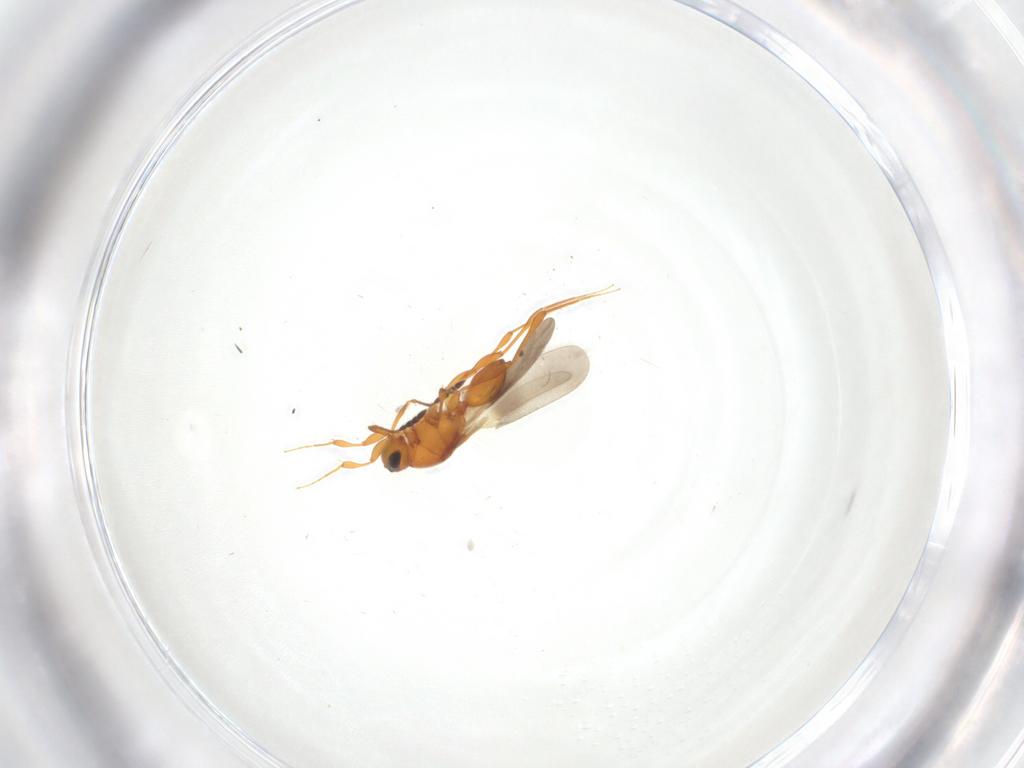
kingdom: Animalia
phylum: Arthropoda
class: Insecta
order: Hymenoptera
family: Platygastridae
